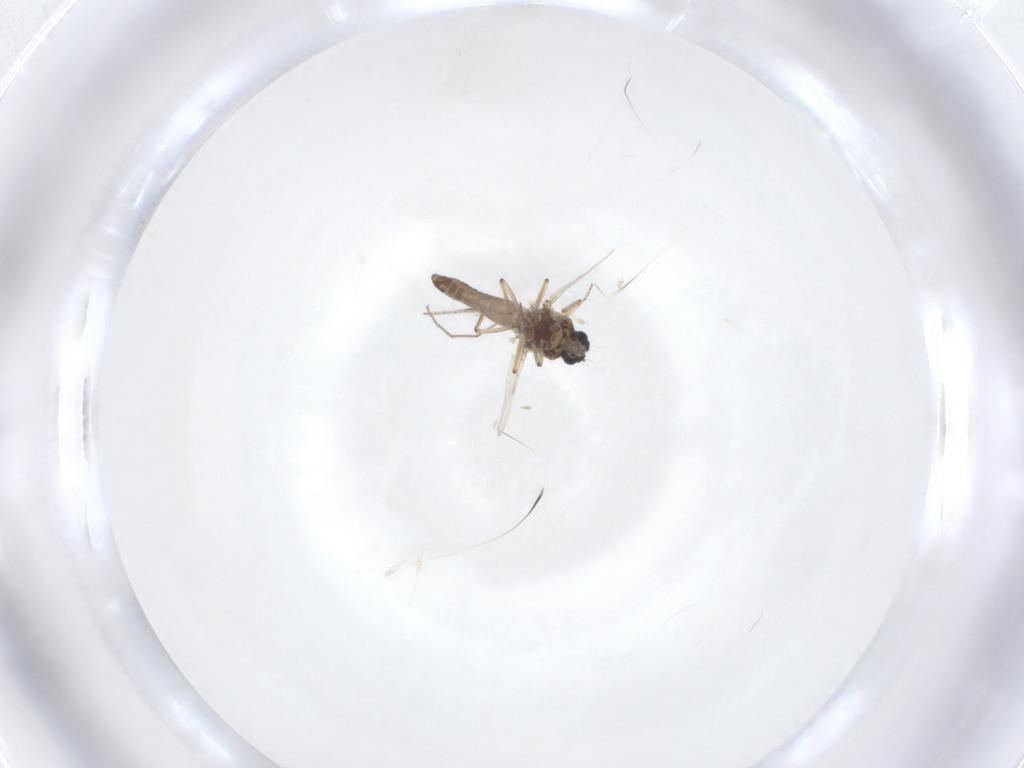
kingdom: Animalia
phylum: Arthropoda
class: Insecta
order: Diptera
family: Ceratopogonidae
